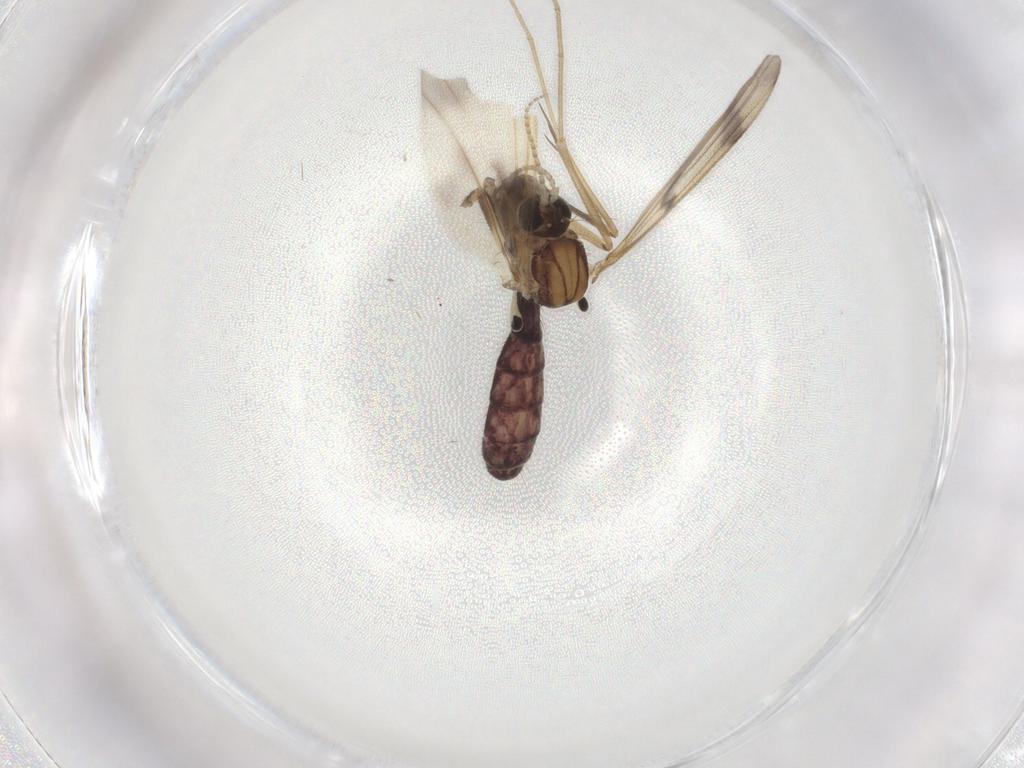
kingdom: Animalia
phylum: Arthropoda
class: Insecta
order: Diptera
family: Mycetophilidae
